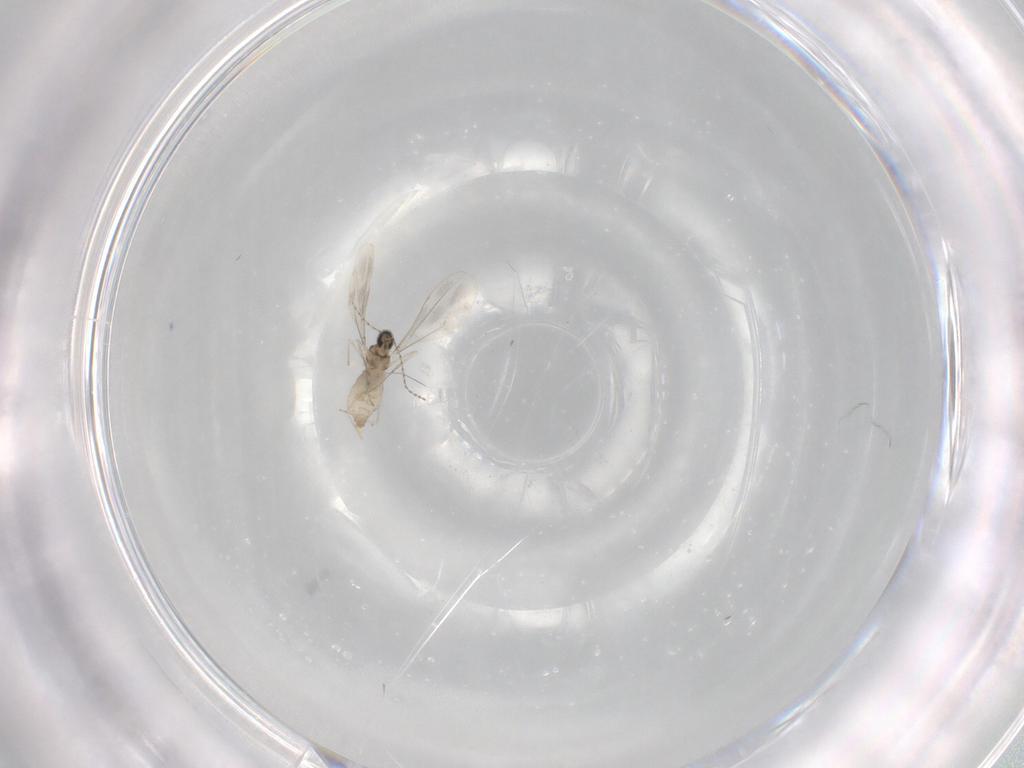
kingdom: Animalia
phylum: Arthropoda
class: Insecta
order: Diptera
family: Cecidomyiidae
